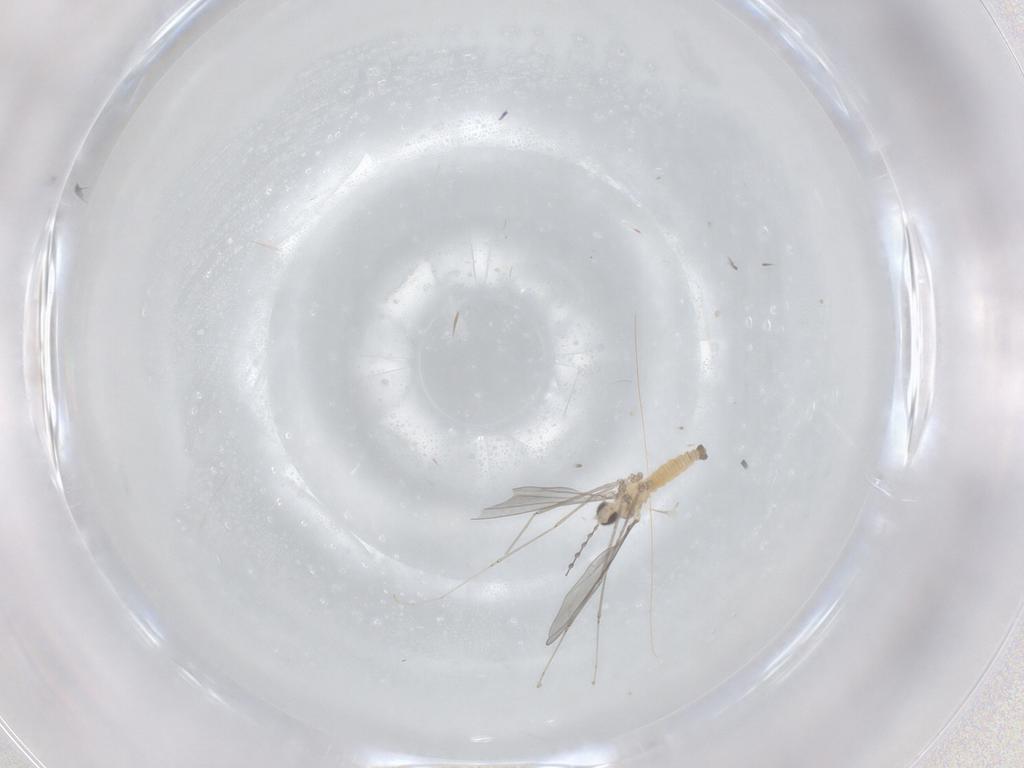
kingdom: Animalia
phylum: Arthropoda
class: Insecta
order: Diptera
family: Cecidomyiidae
